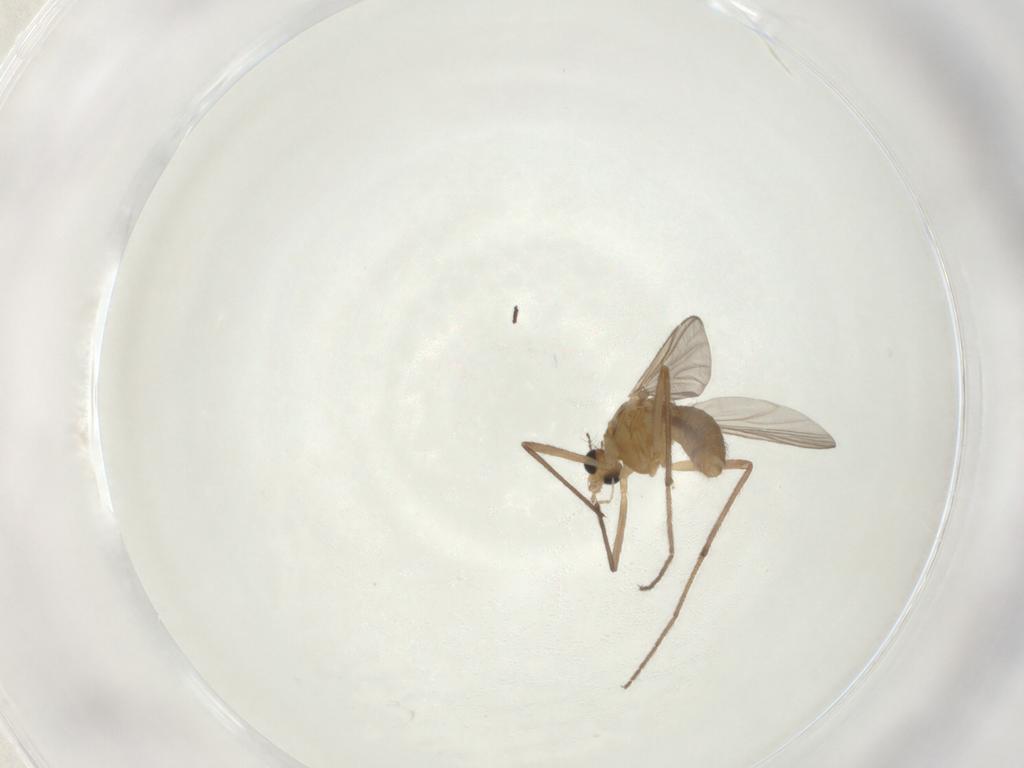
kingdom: Animalia
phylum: Arthropoda
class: Insecta
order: Diptera
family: Chironomidae
